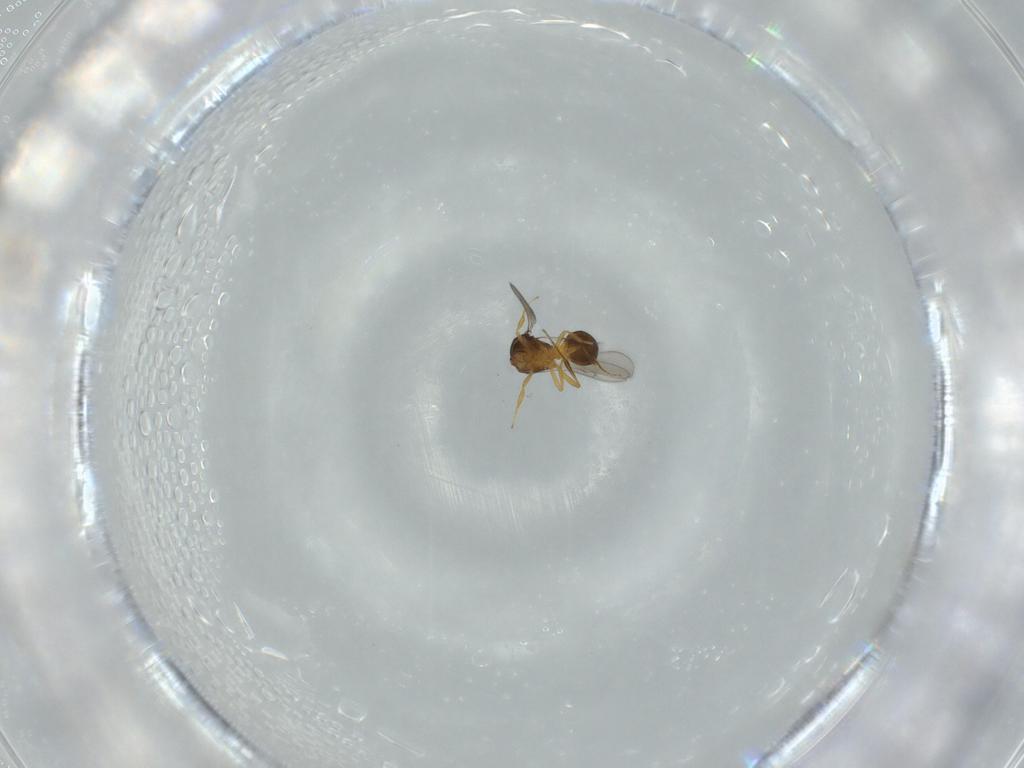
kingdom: Animalia
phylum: Arthropoda
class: Insecta
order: Hymenoptera
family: Scelionidae
